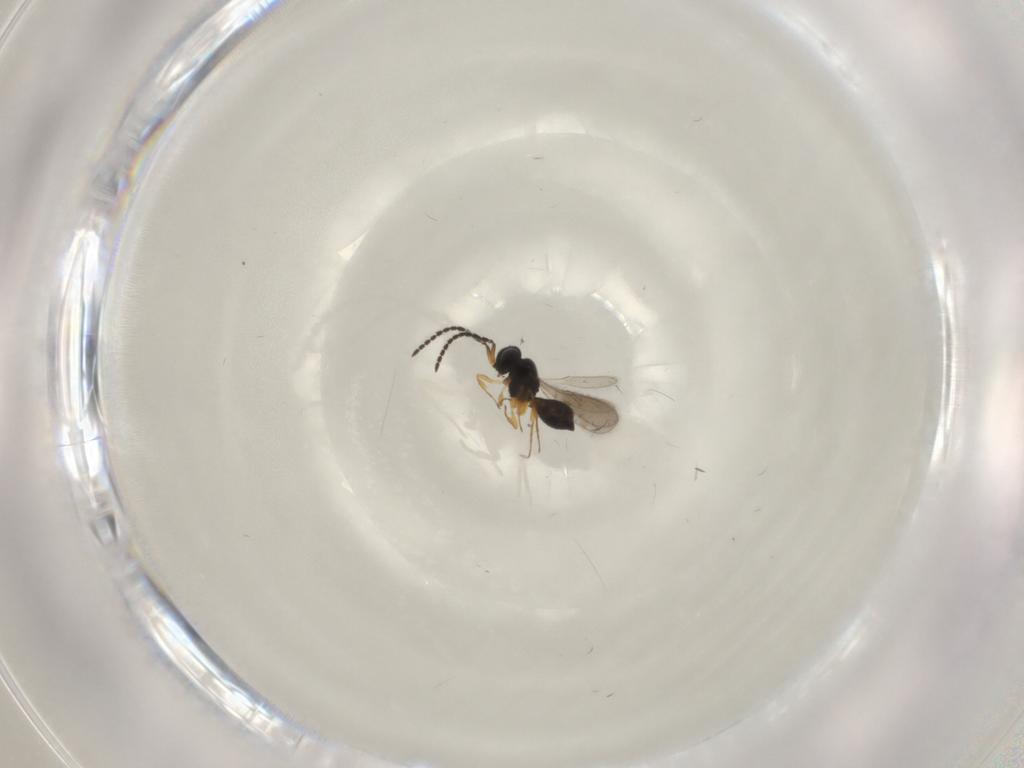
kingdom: Animalia
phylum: Arthropoda
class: Insecta
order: Hymenoptera
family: Scelionidae
